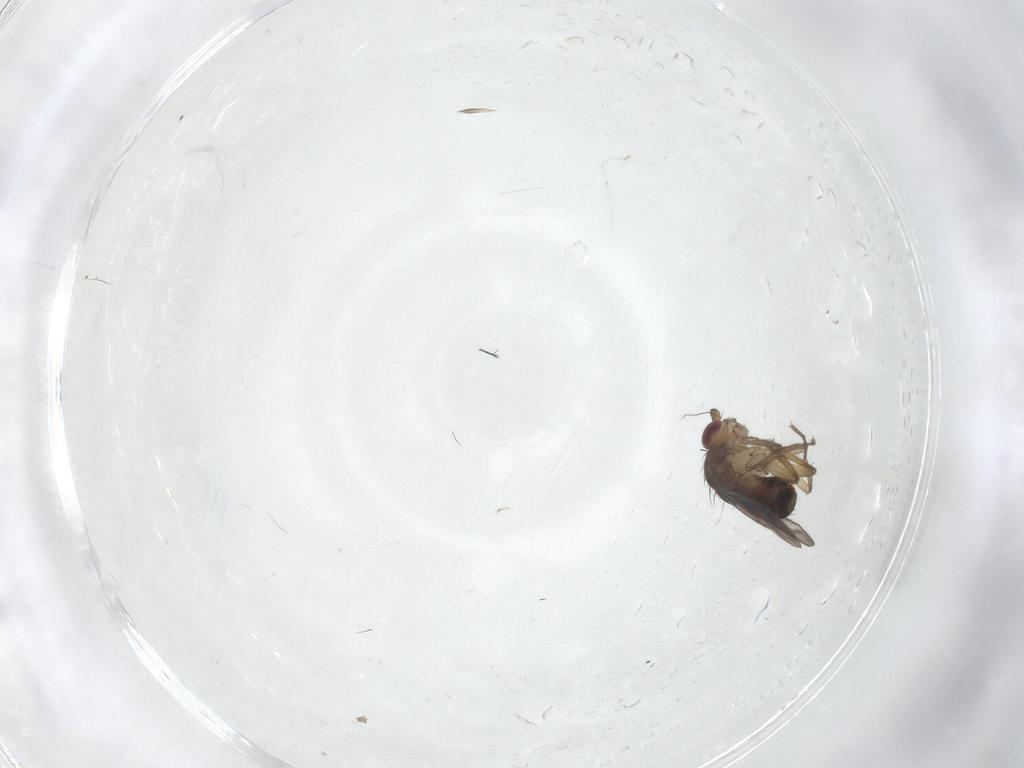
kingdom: Animalia
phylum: Arthropoda
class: Insecta
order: Diptera
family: Sphaeroceridae
